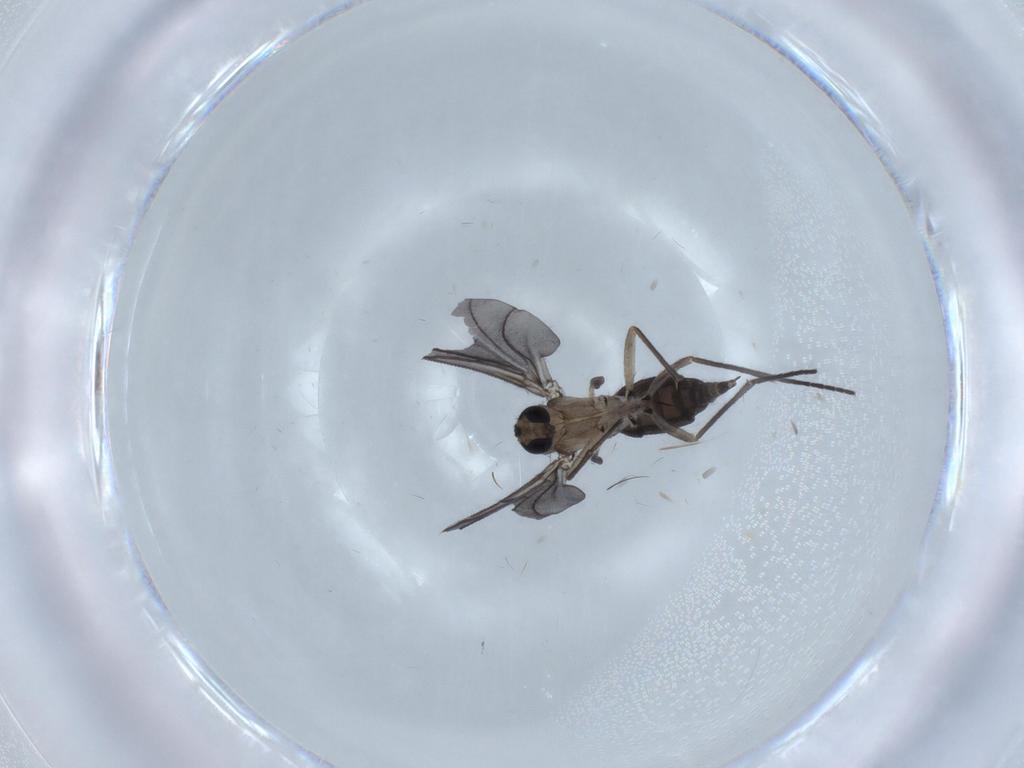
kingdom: Animalia
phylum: Arthropoda
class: Insecta
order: Diptera
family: Sciaridae
